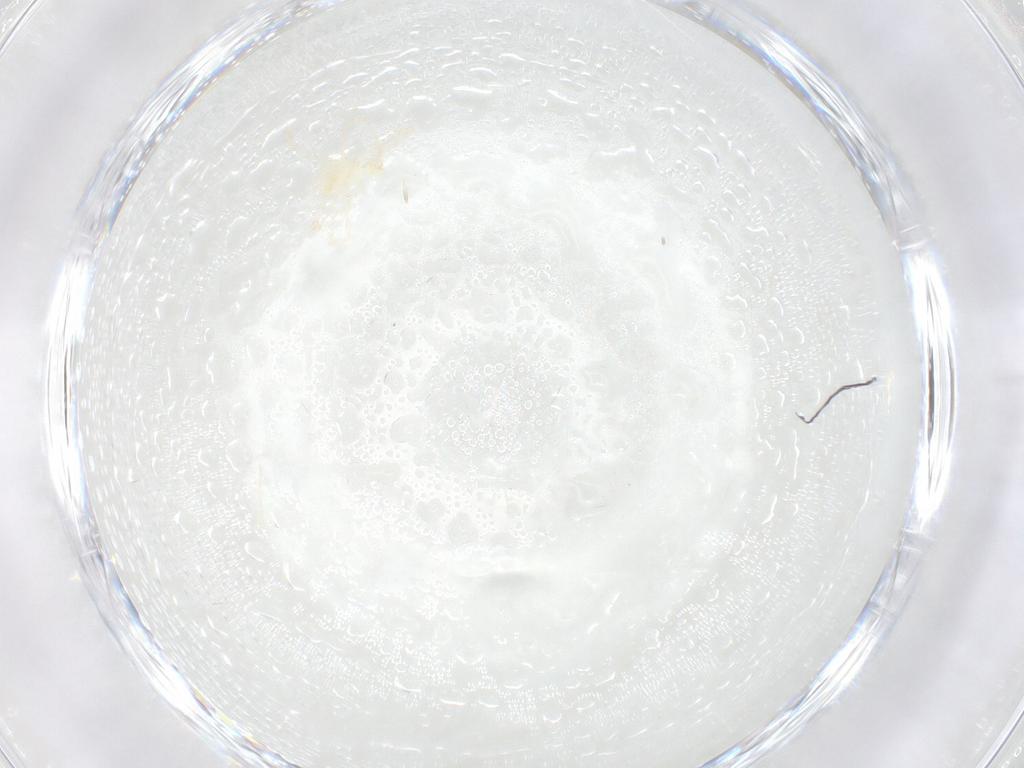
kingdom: Animalia
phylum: Arthropoda
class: Arachnida
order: Trombidiformes
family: Erythraeidae
